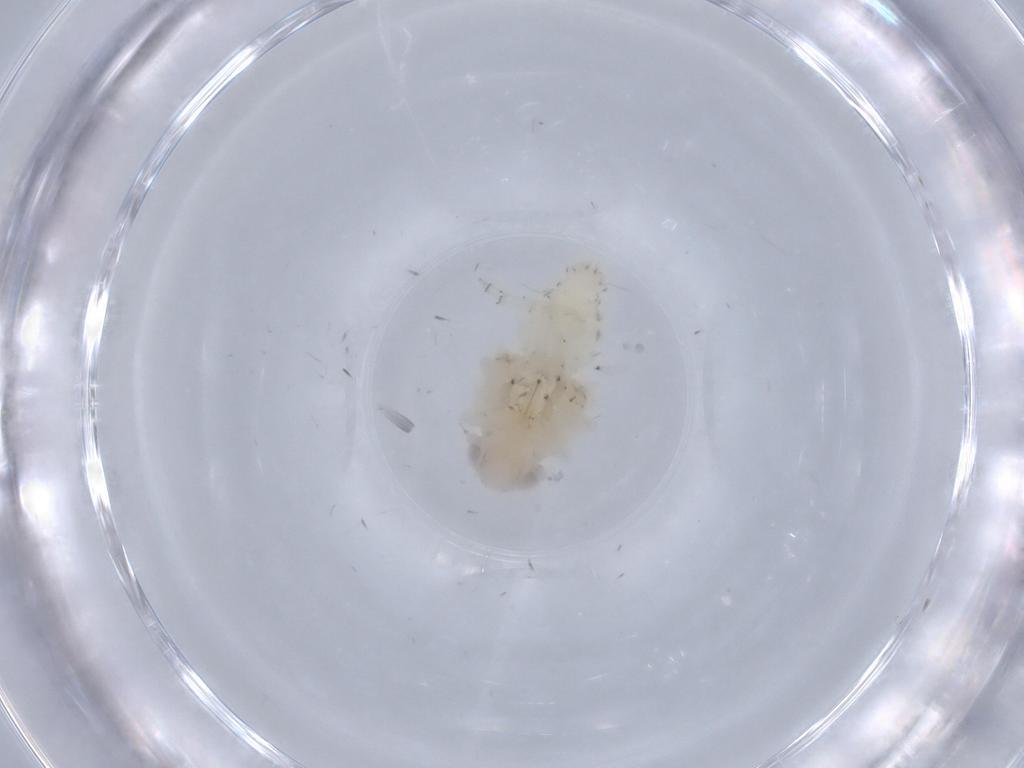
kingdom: Animalia
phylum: Arthropoda
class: Insecta
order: Hemiptera
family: Nogodinidae
